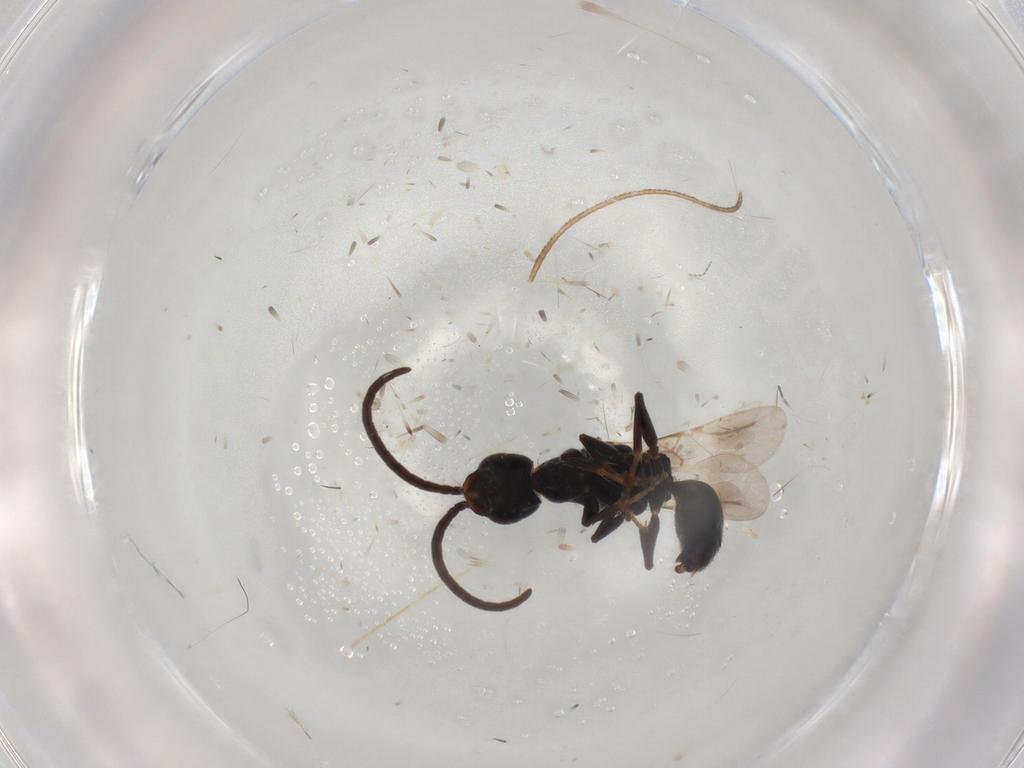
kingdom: Animalia
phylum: Arthropoda
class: Insecta
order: Hymenoptera
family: Bethylidae
